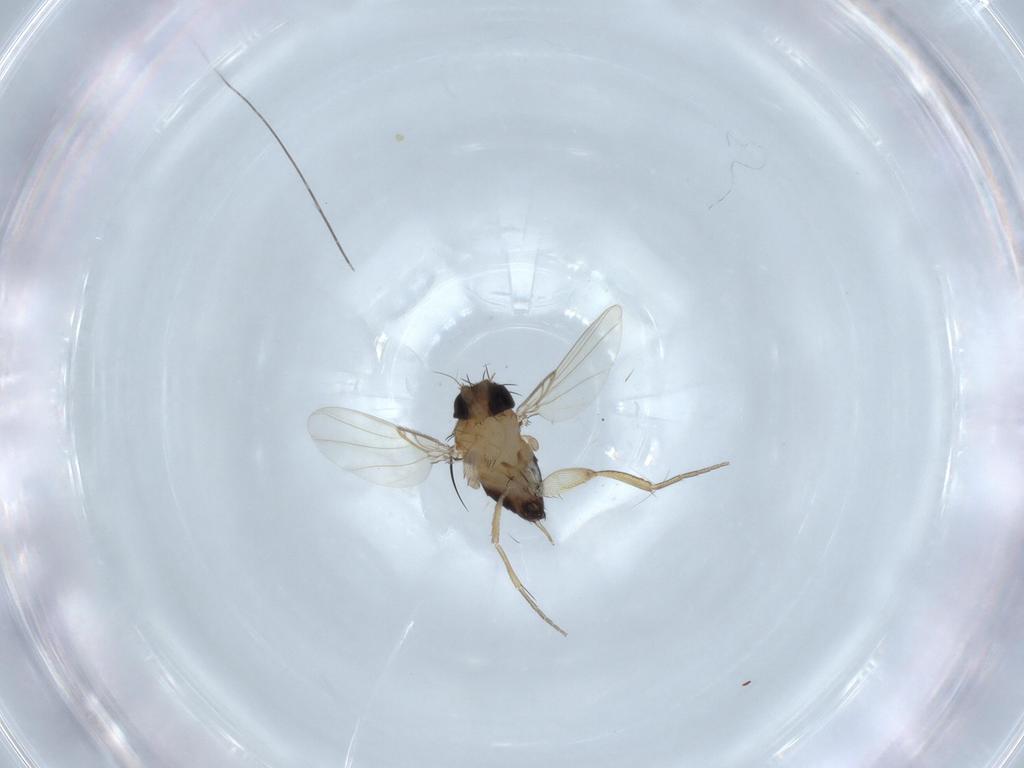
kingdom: Animalia
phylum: Arthropoda
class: Insecta
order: Diptera
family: Phoridae
